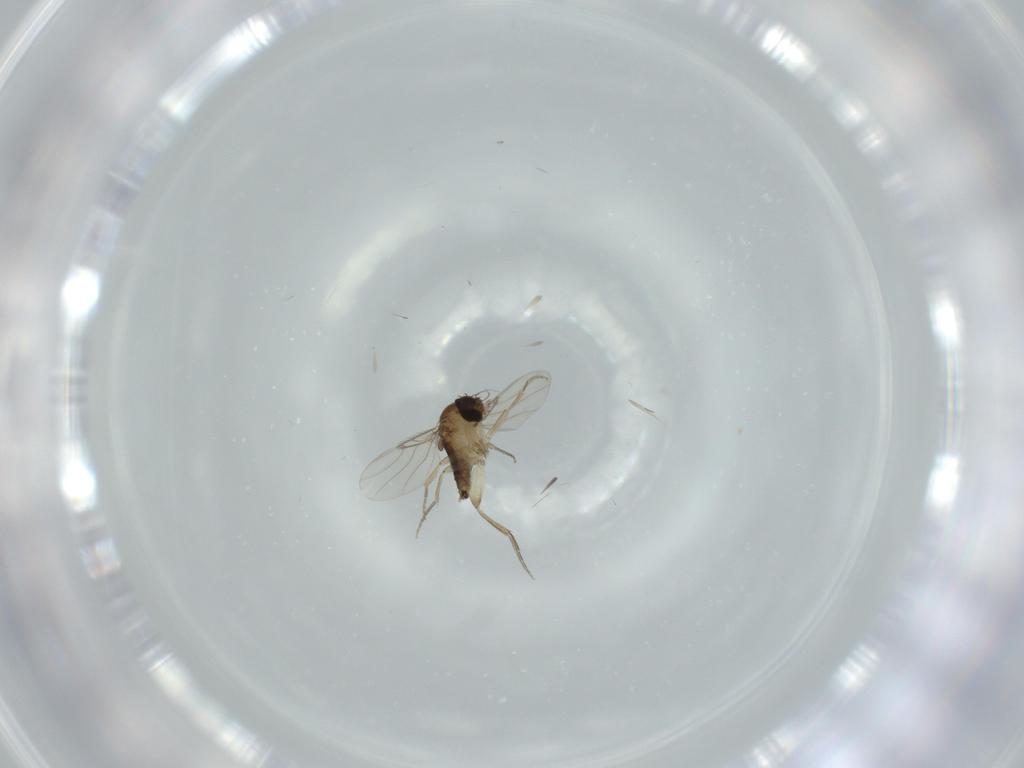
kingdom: Animalia
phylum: Arthropoda
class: Insecta
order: Diptera
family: Phoridae
